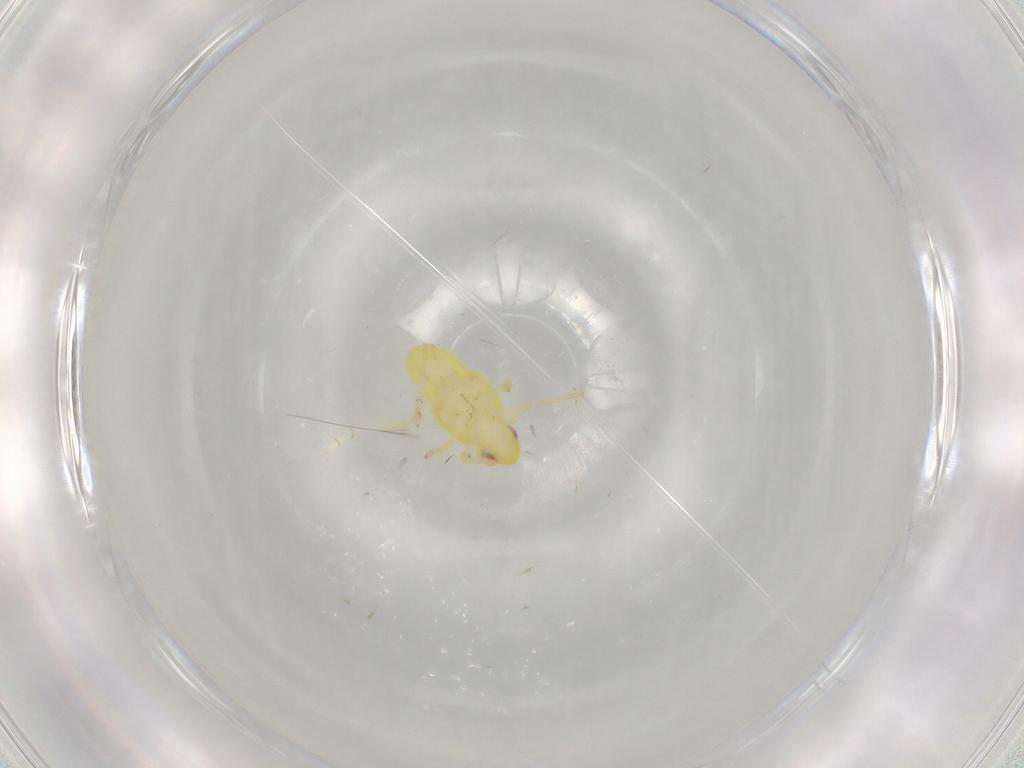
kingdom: Animalia
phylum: Arthropoda
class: Insecta
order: Hemiptera
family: Tropiduchidae
